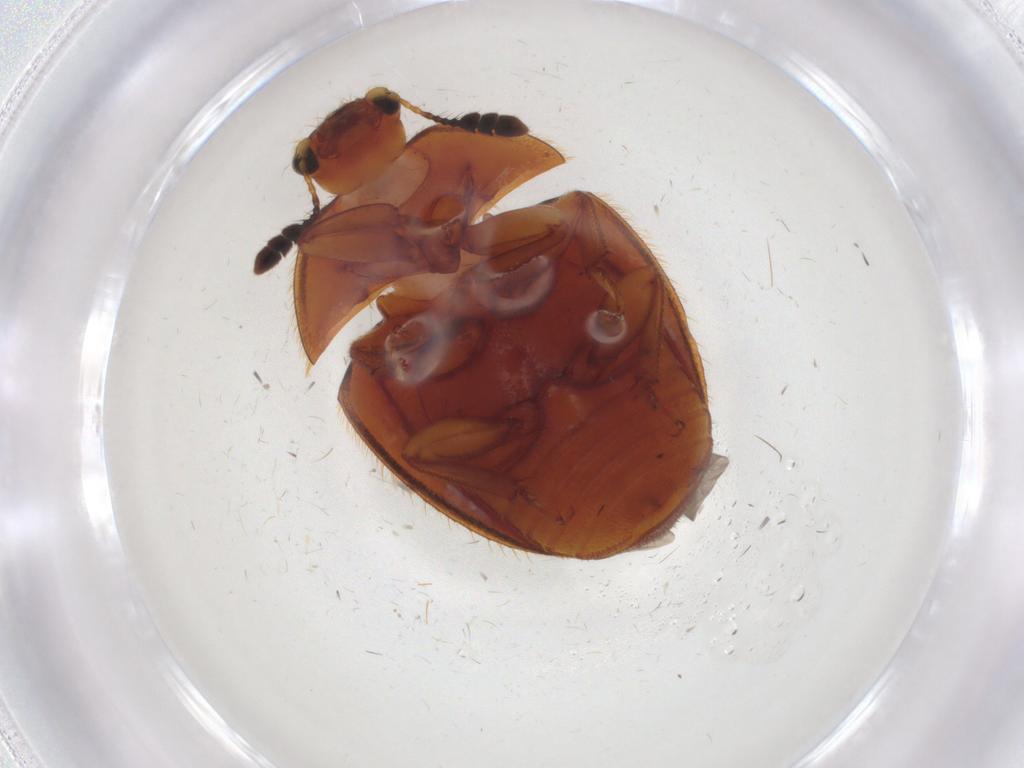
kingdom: Animalia
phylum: Arthropoda
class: Insecta
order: Coleoptera
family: Nitidulidae
